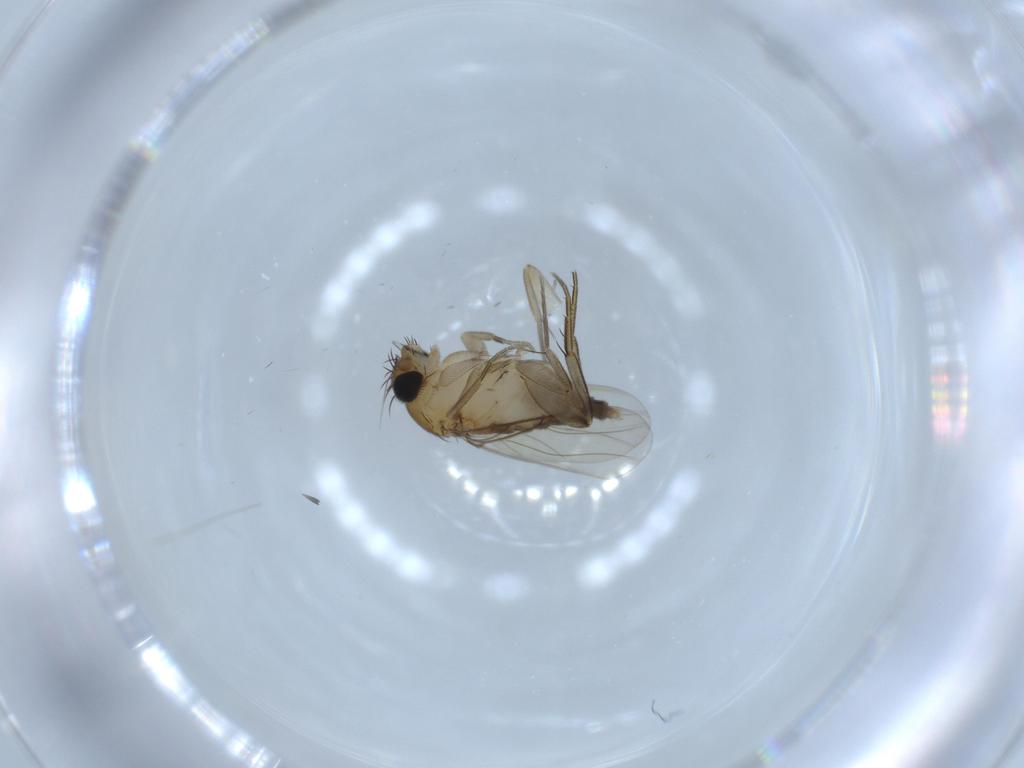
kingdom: Animalia
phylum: Arthropoda
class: Insecta
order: Diptera
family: Phoridae
